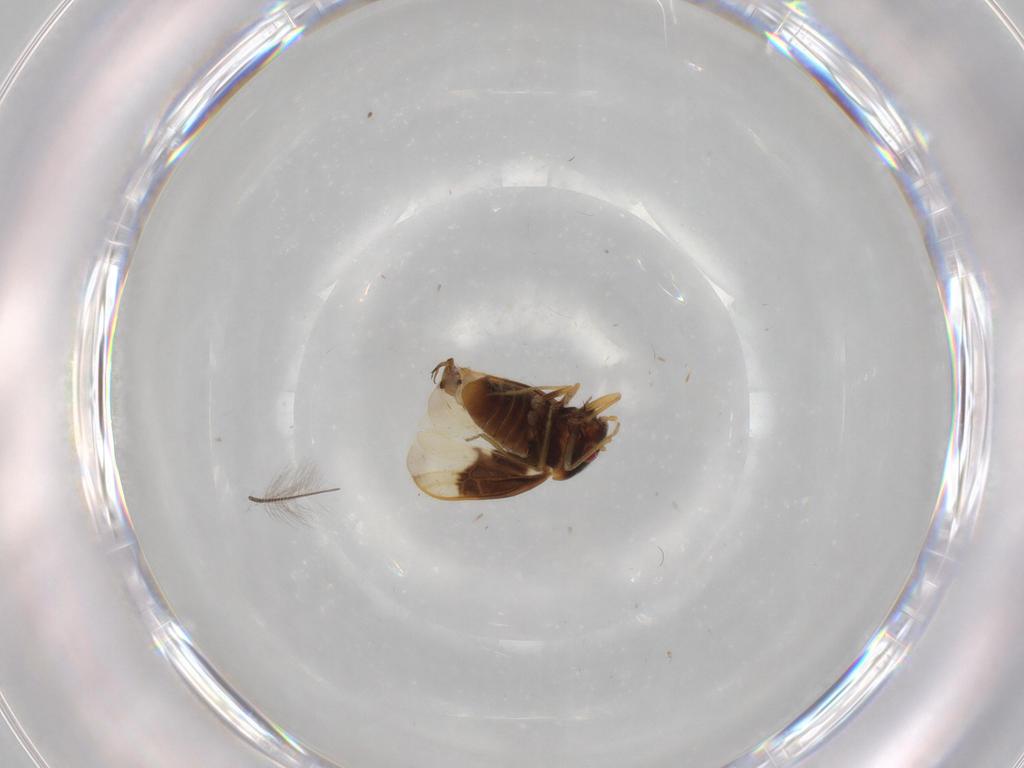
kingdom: Animalia
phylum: Arthropoda
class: Insecta
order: Hemiptera
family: Schizopteridae
